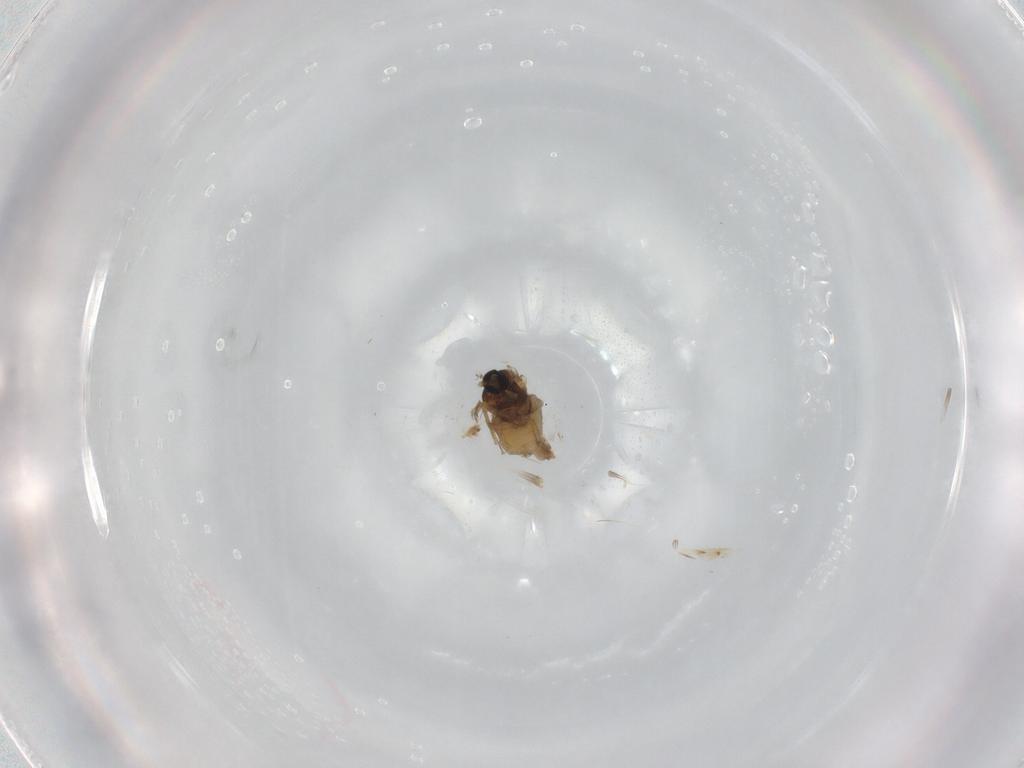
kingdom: Animalia
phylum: Arthropoda
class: Insecta
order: Diptera
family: Cecidomyiidae
